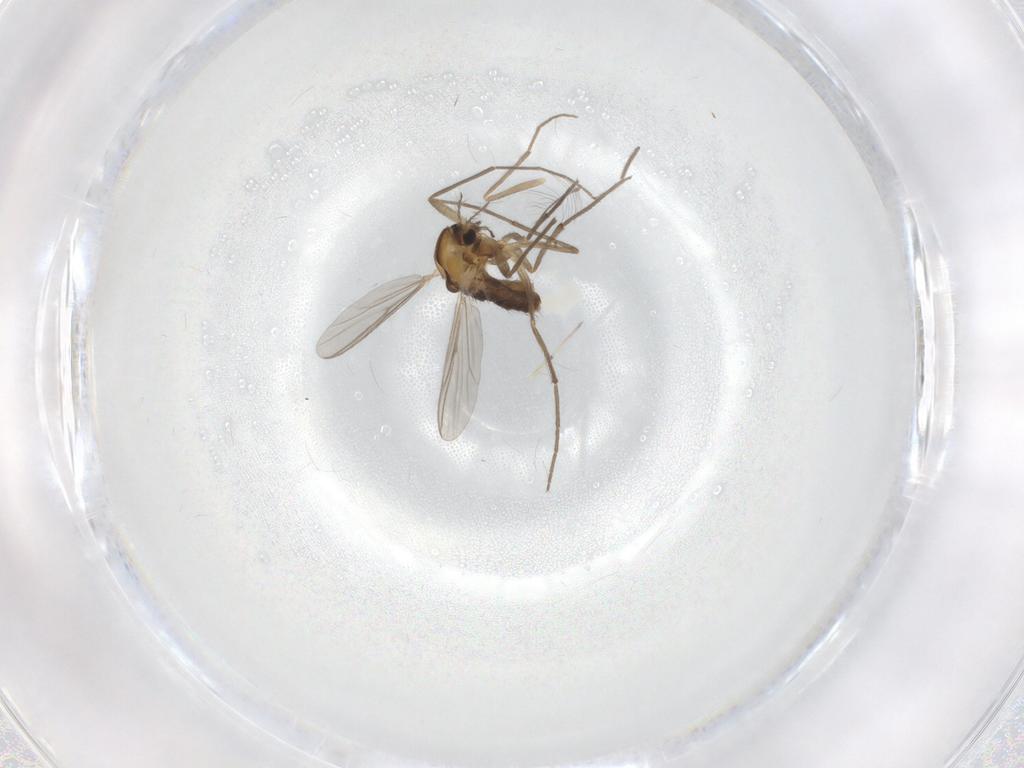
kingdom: Animalia
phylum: Arthropoda
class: Insecta
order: Diptera
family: Chironomidae
